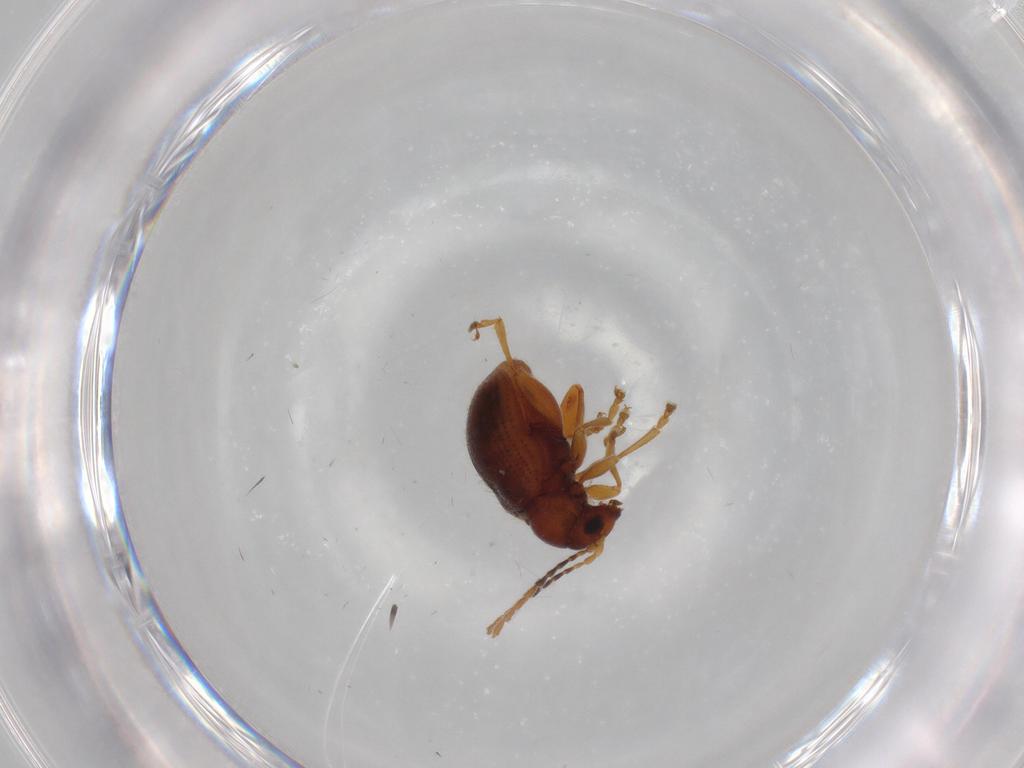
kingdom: Animalia
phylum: Arthropoda
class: Insecta
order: Coleoptera
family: Chrysomelidae
